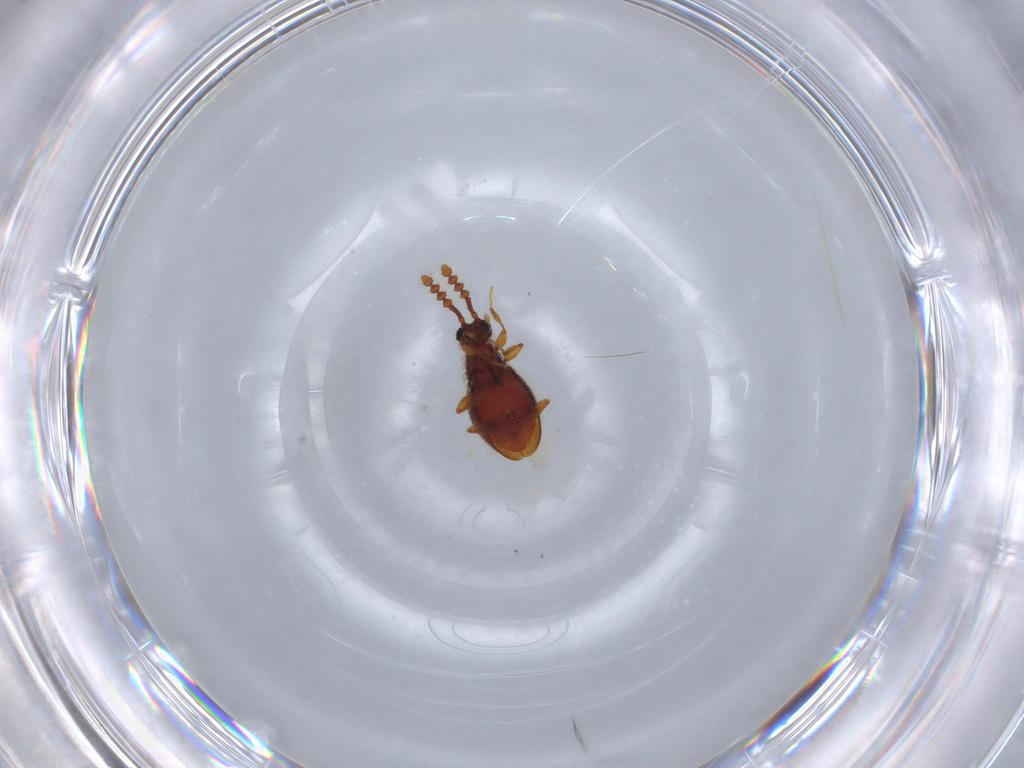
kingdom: Animalia
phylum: Arthropoda
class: Insecta
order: Coleoptera
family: Staphylinidae
